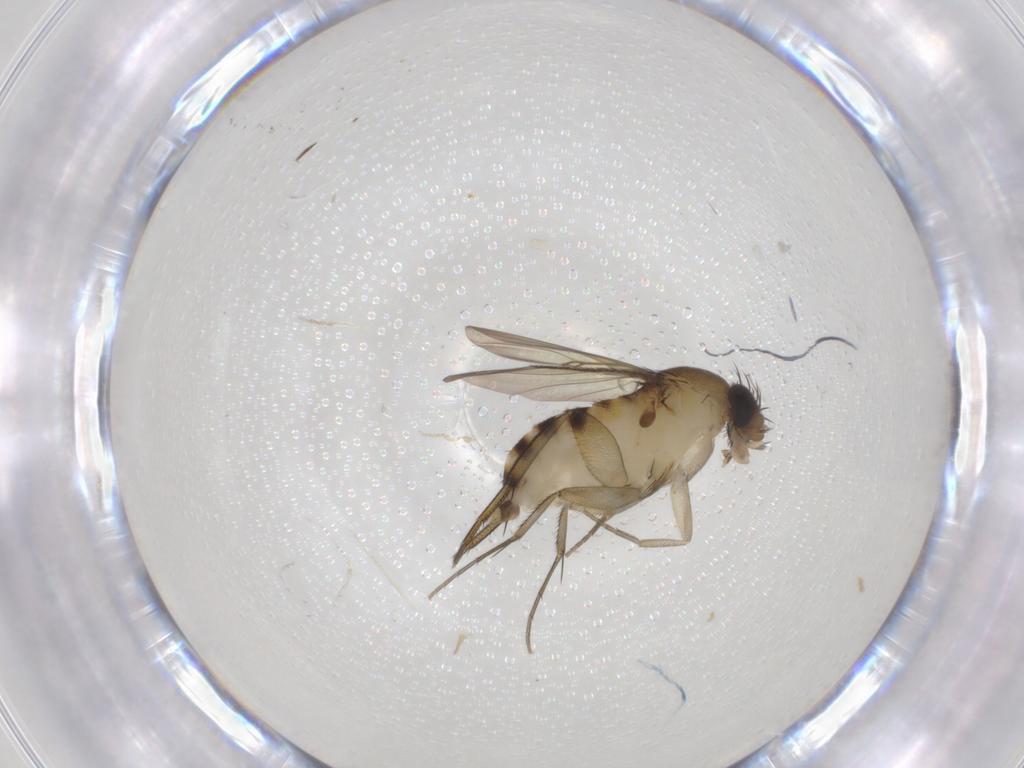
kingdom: Animalia
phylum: Arthropoda
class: Insecta
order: Diptera
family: Phoridae
